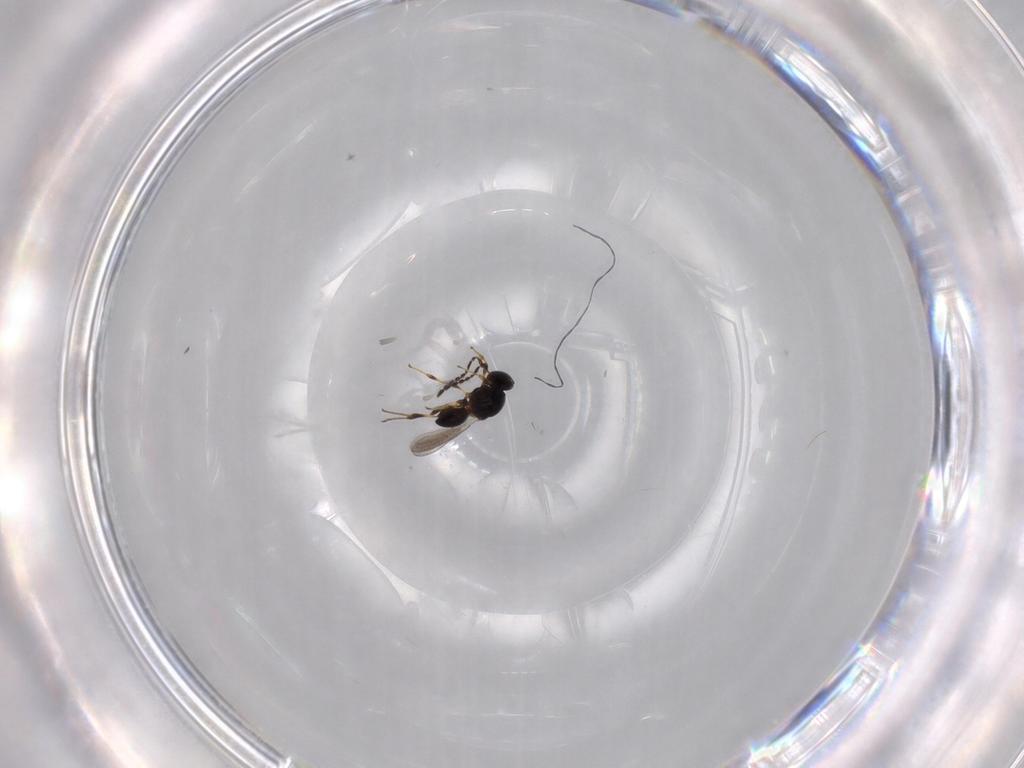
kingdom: Animalia
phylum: Arthropoda
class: Insecta
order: Hymenoptera
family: Platygastridae
